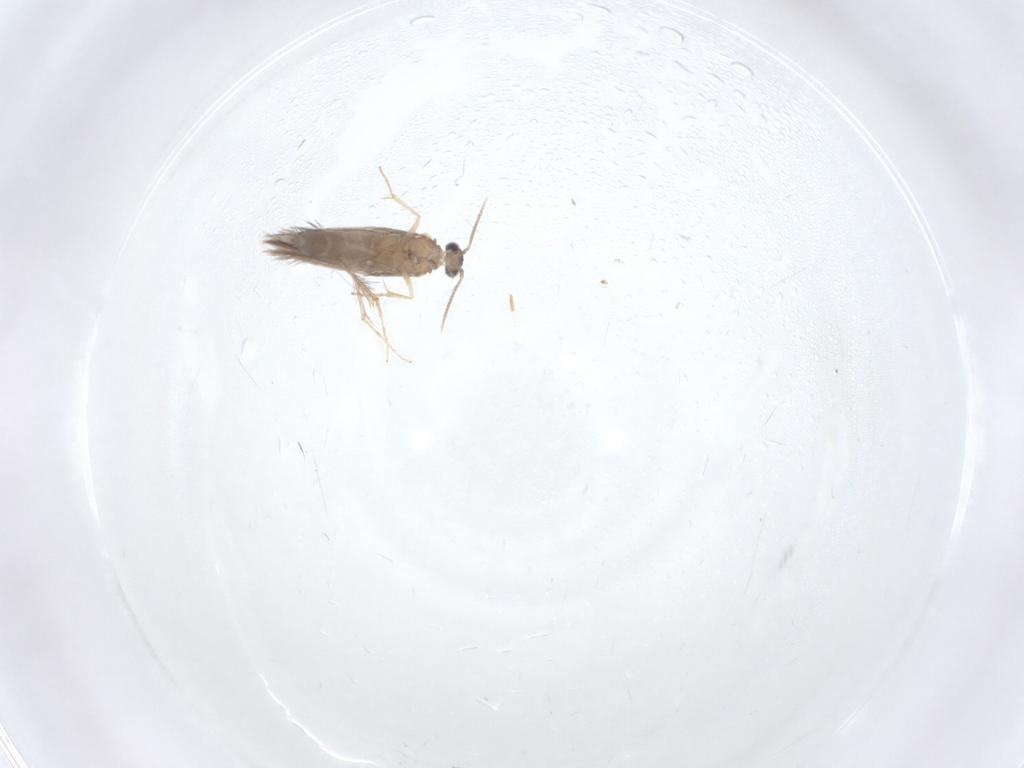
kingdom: Animalia
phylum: Arthropoda
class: Insecta
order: Trichoptera
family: Hydroptilidae
